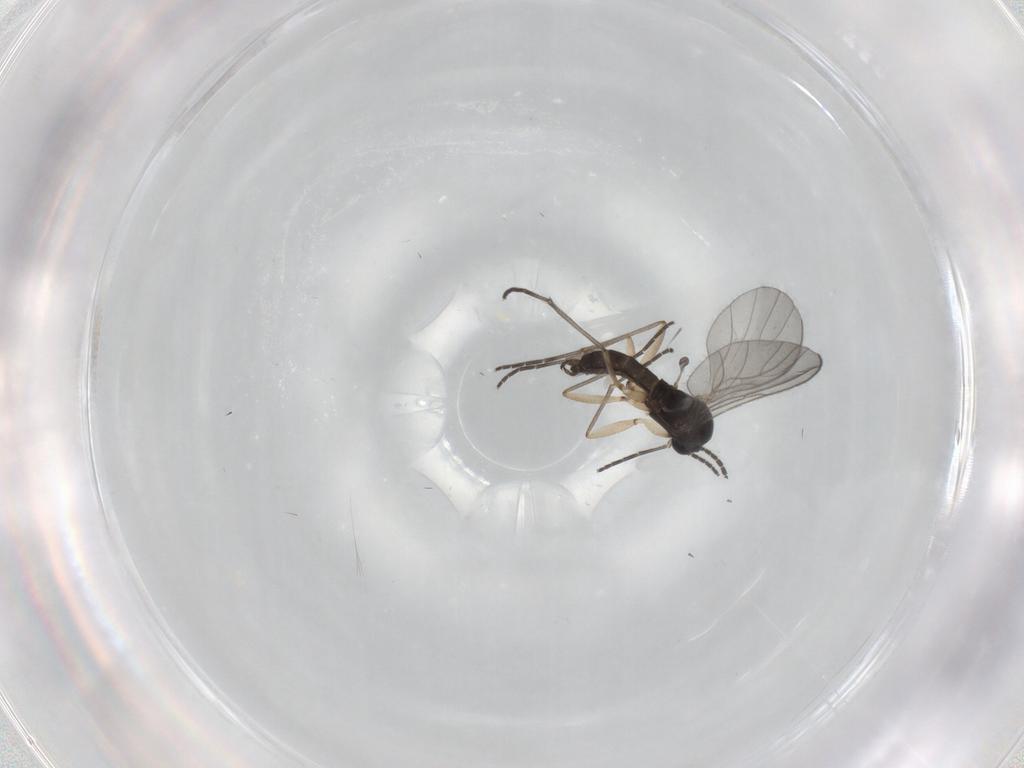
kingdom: Animalia
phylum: Arthropoda
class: Insecta
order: Diptera
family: Sciaridae
